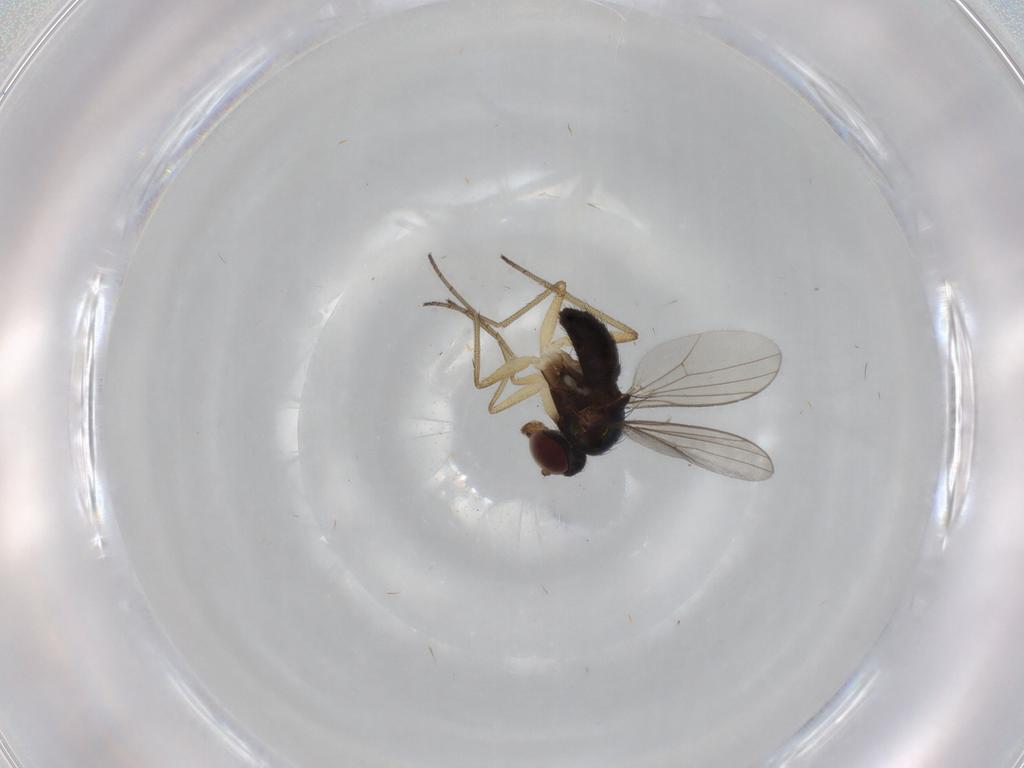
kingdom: Animalia
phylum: Arthropoda
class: Insecta
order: Diptera
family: Dolichopodidae
